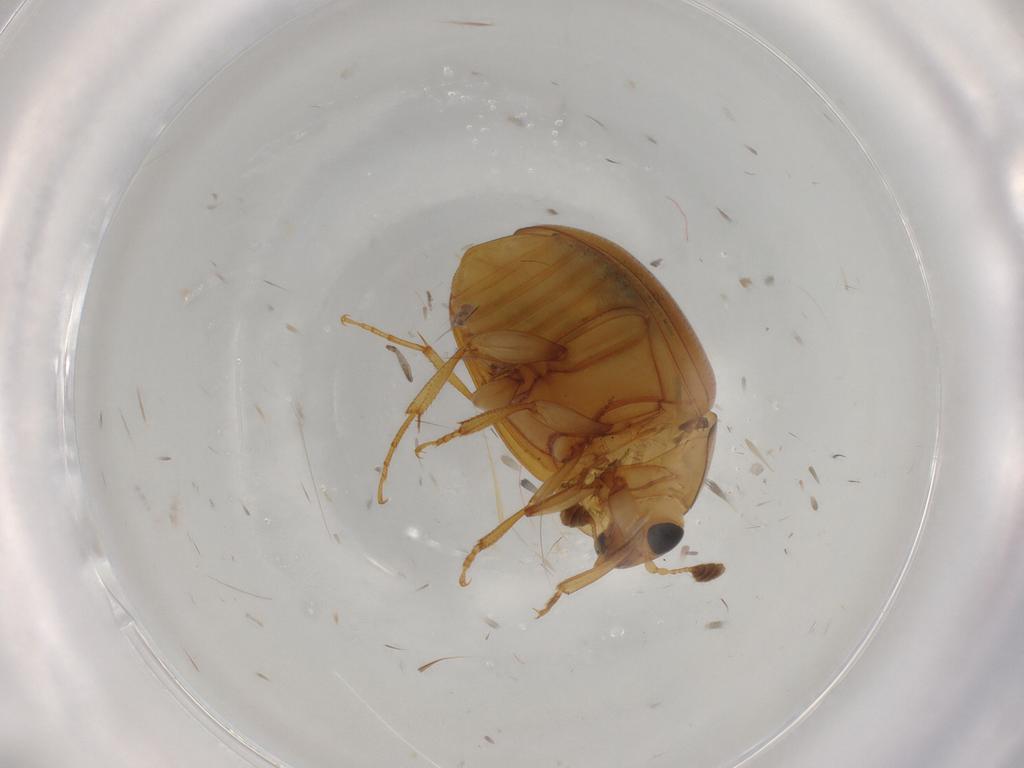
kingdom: Animalia
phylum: Arthropoda
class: Insecta
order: Coleoptera
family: Nitidulidae
